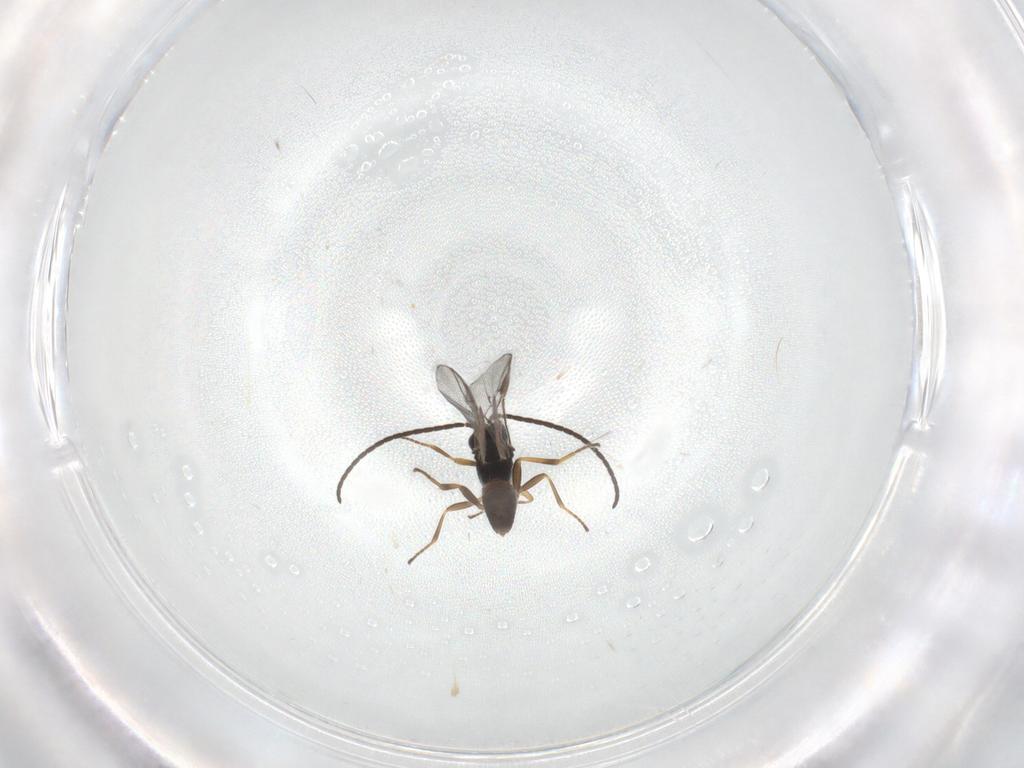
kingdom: Animalia
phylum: Arthropoda
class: Insecta
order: Hymenoptera
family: Braconidae
